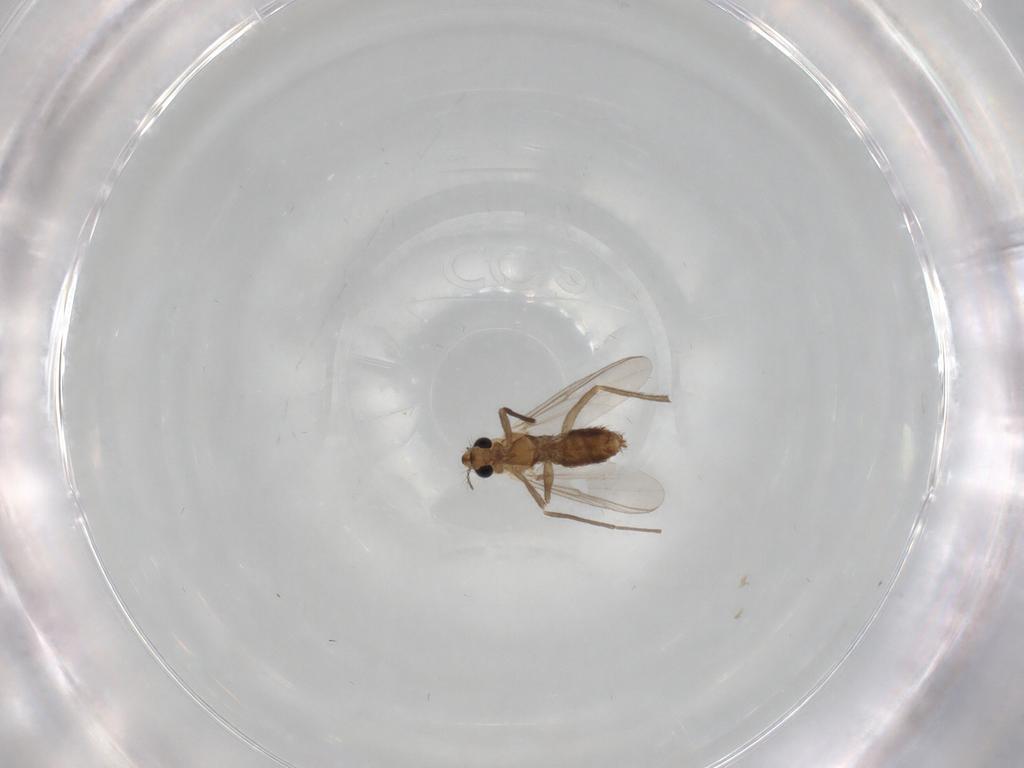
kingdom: Animalia
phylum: Arthropoda
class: Insecta
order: Diptera
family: Chironomidae
